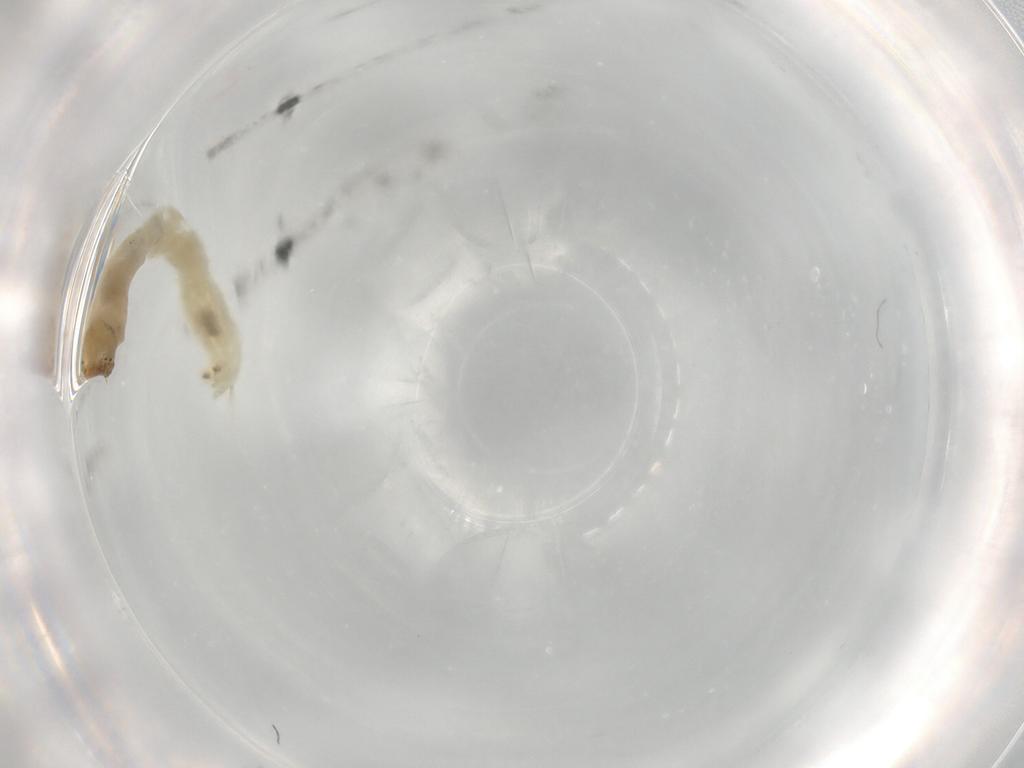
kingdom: Animalia
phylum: Arthropoda
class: Insecta
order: Diptera
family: Chironomidae
